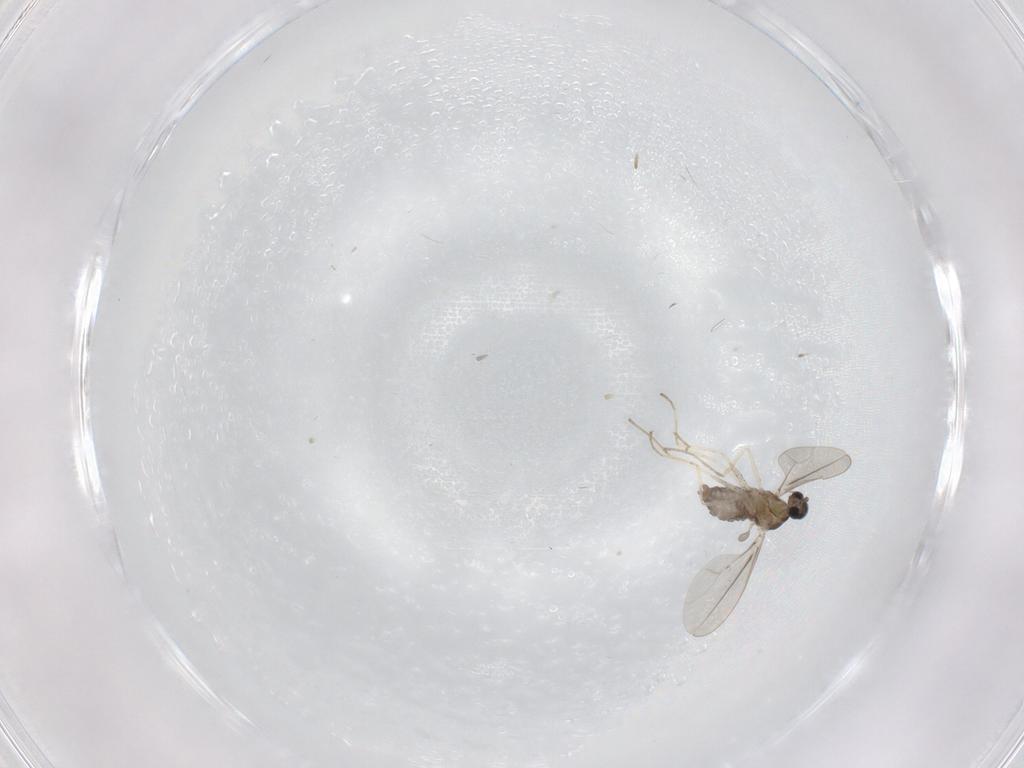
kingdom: Animalia
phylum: Arthropoda
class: Insecta
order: Diptera
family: Cecidomyiidae
